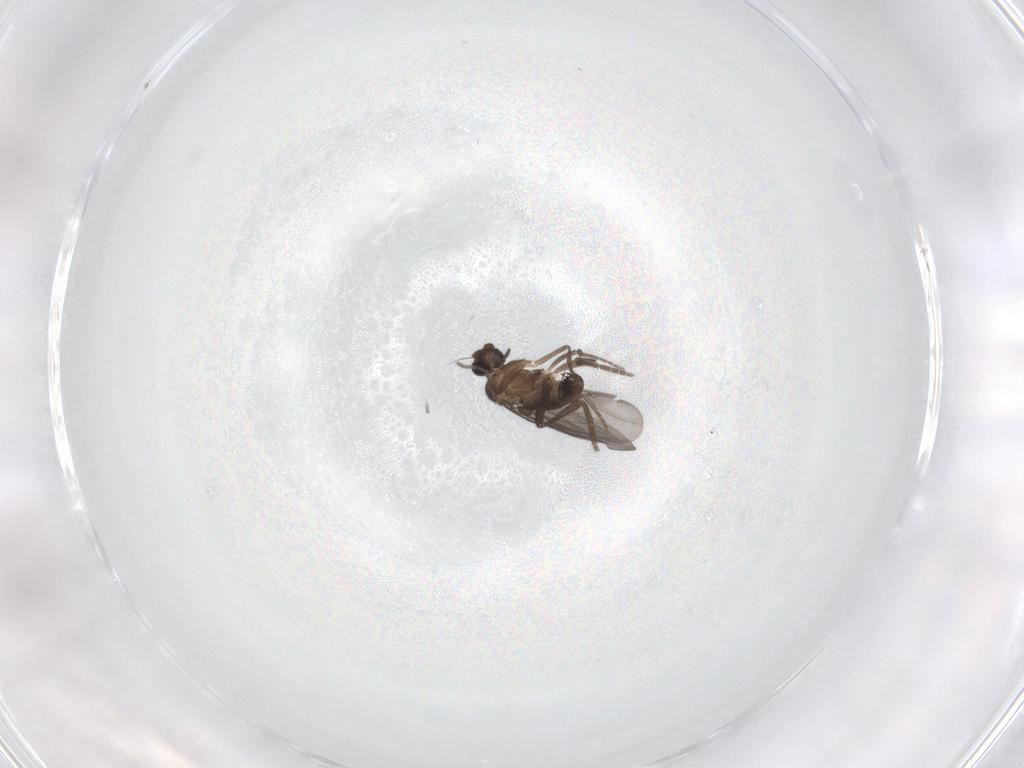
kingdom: Animalia
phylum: Arthropoda
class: Insecta
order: Diptera
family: Phoridae
